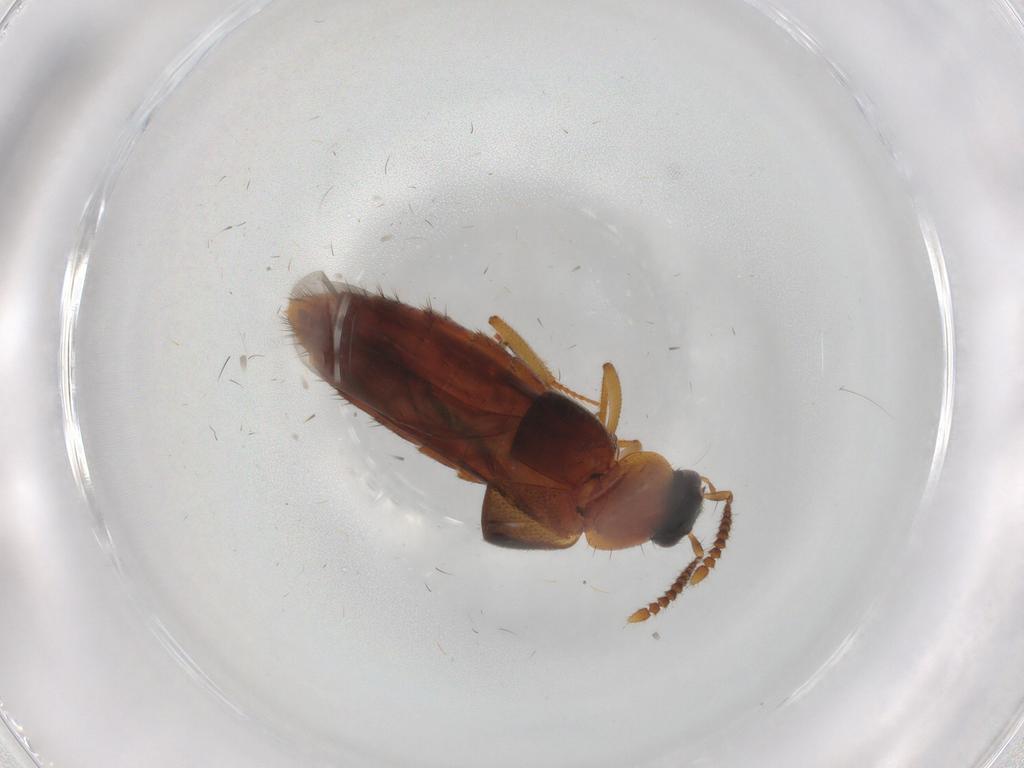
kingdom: Animalia
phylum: Arthropoda
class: Insecta
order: Coleoptera
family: Staphylinidae
